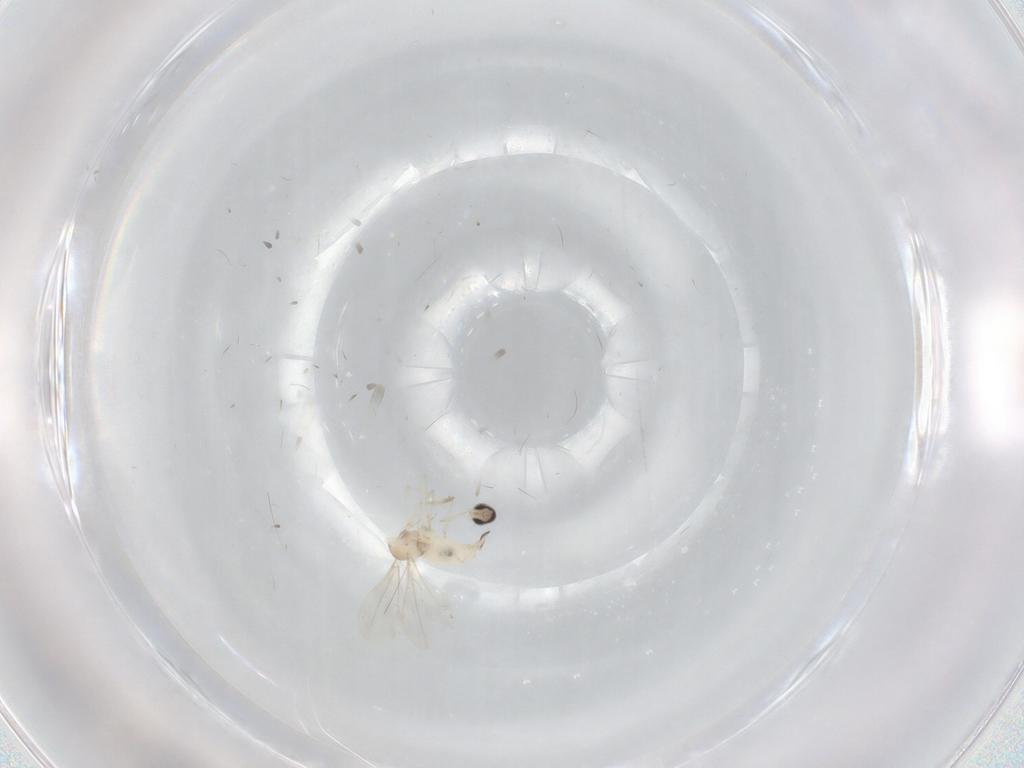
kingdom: Animalia
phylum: Arthropoda
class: Insecta
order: Diptera
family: Cecidomyiidae
